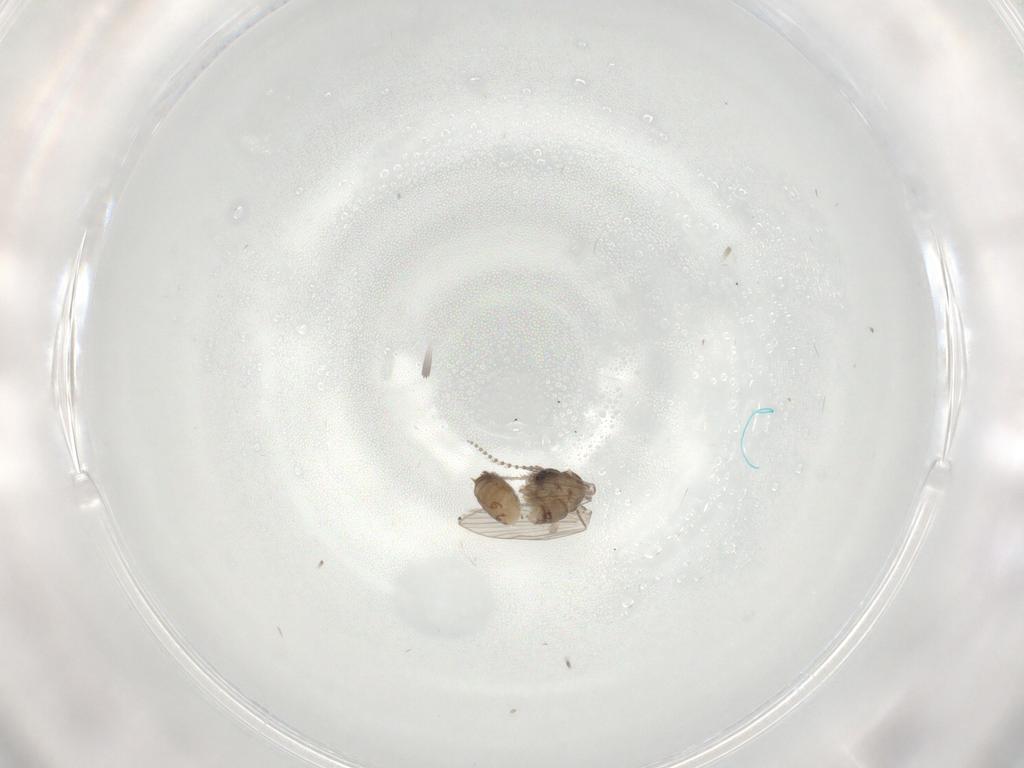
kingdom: Animalia
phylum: Arthropoda
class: Insecta
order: Diptera
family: Psychodidae
